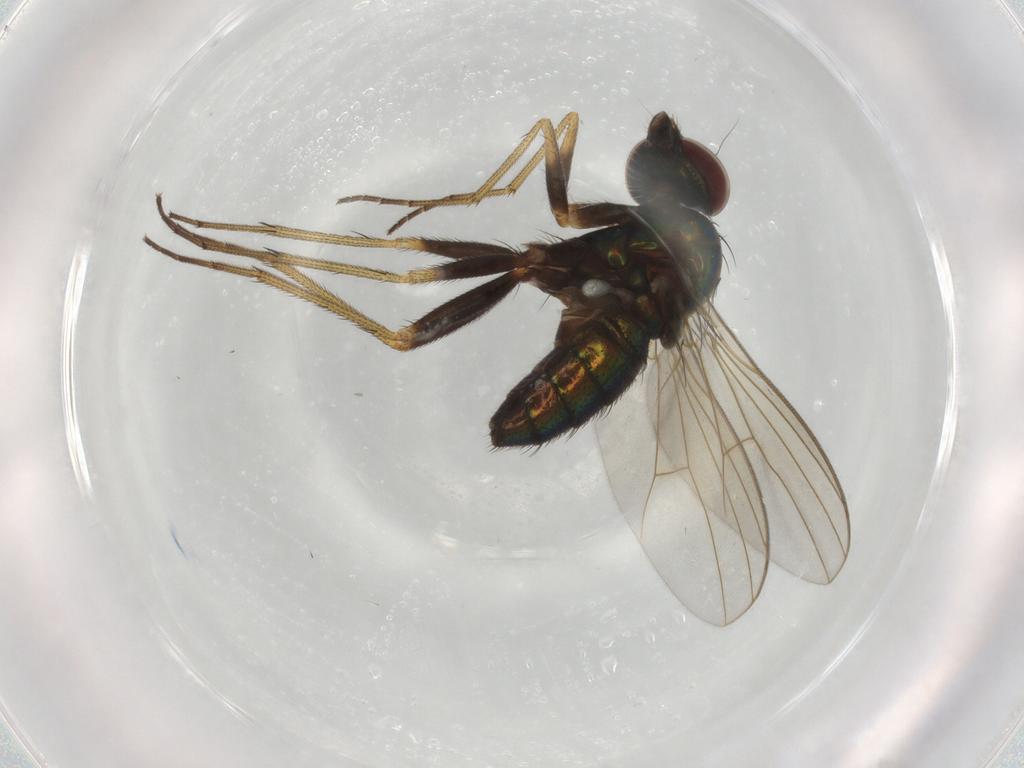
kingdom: Animalia
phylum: Arthropoda
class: Insecta
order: Diptera
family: Dolichopodidae
